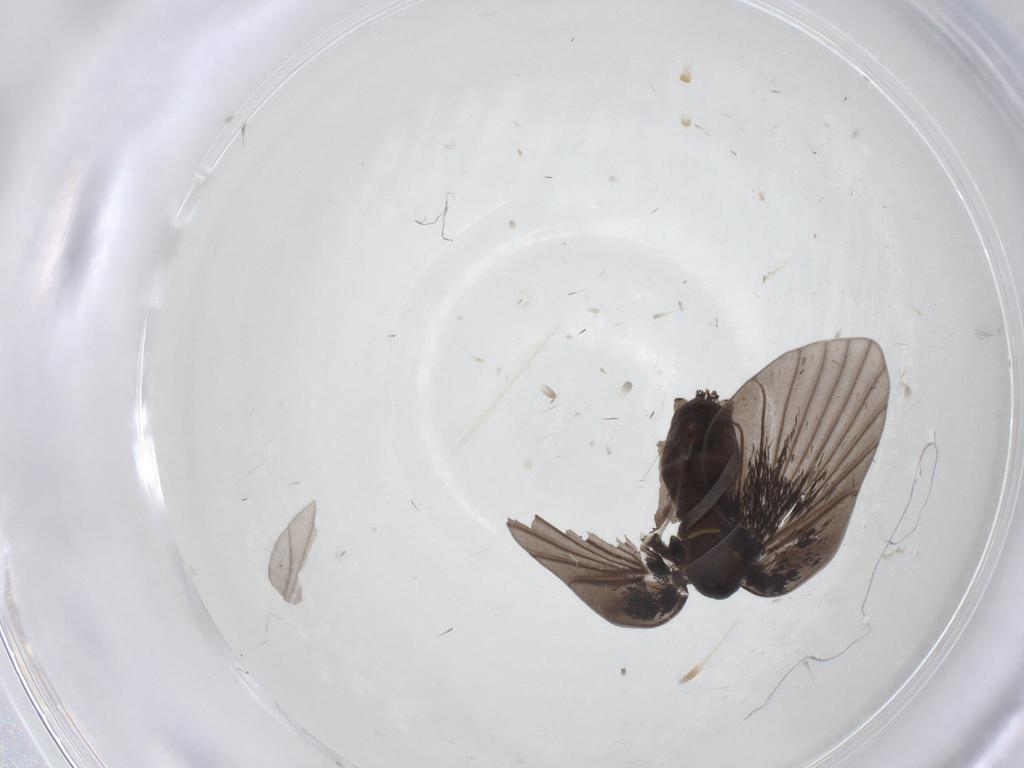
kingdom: Animalia
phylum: Arthropoda
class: Insecta
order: Diptera
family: Psychodidae
